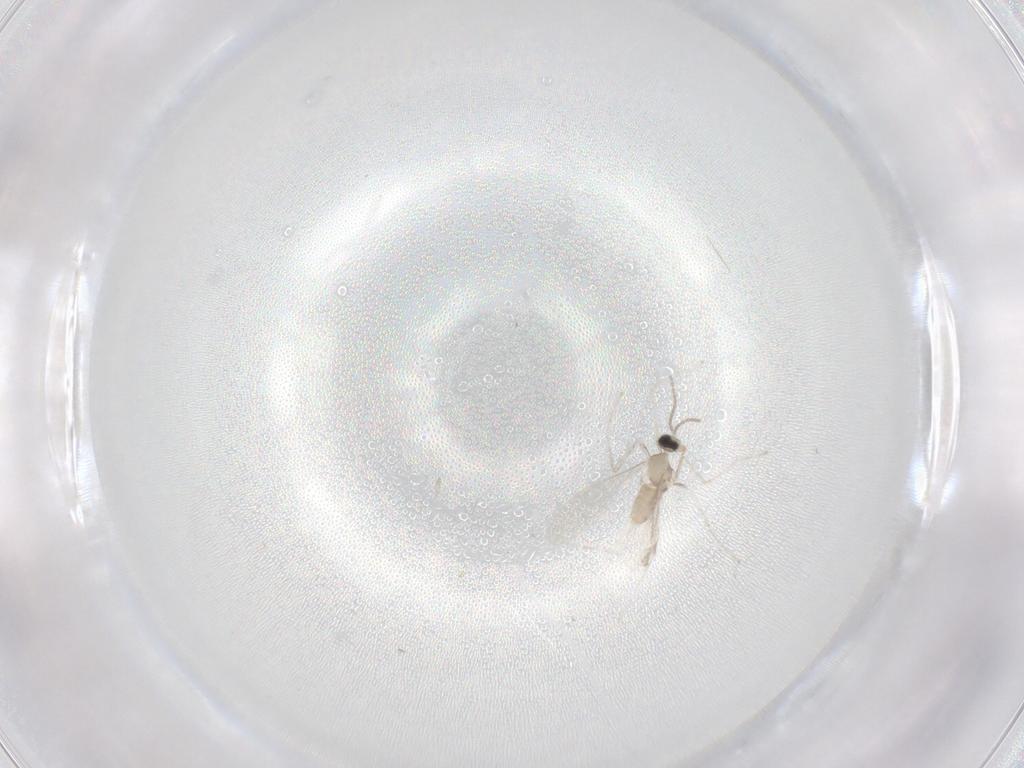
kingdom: Animalia
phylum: Arthropoda
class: Insecta
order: Diptera
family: Cecidomyiidae
